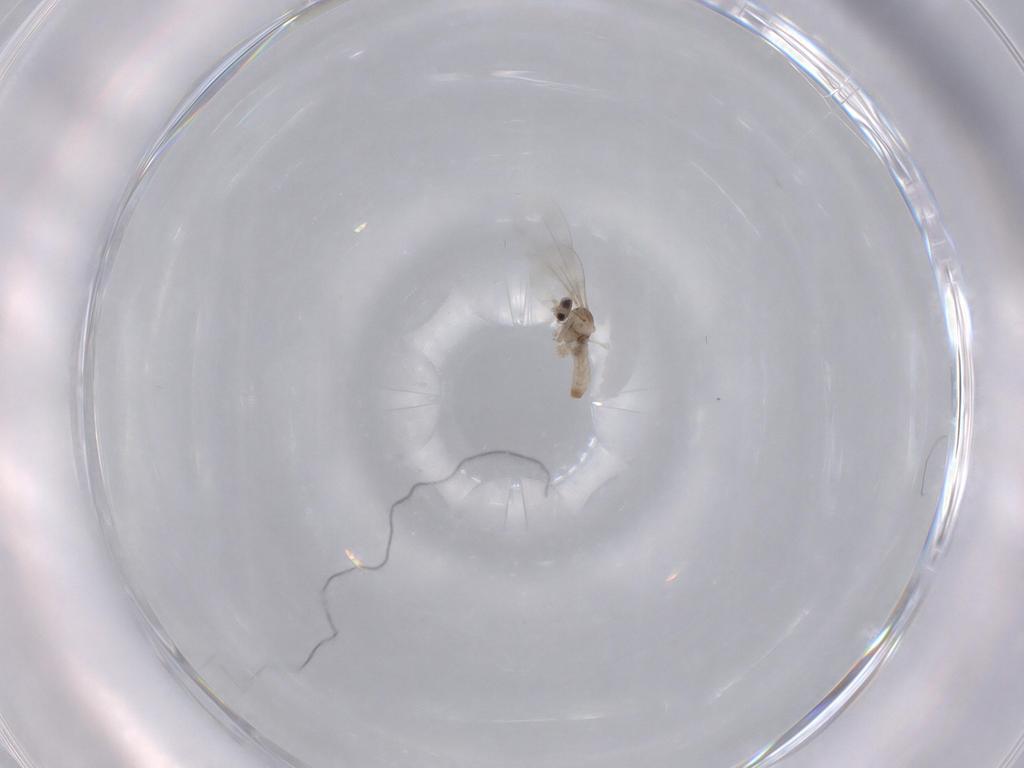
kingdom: Animalia
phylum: Arthropoda
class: Insecta
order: Diptera
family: Cecidomyiidae
